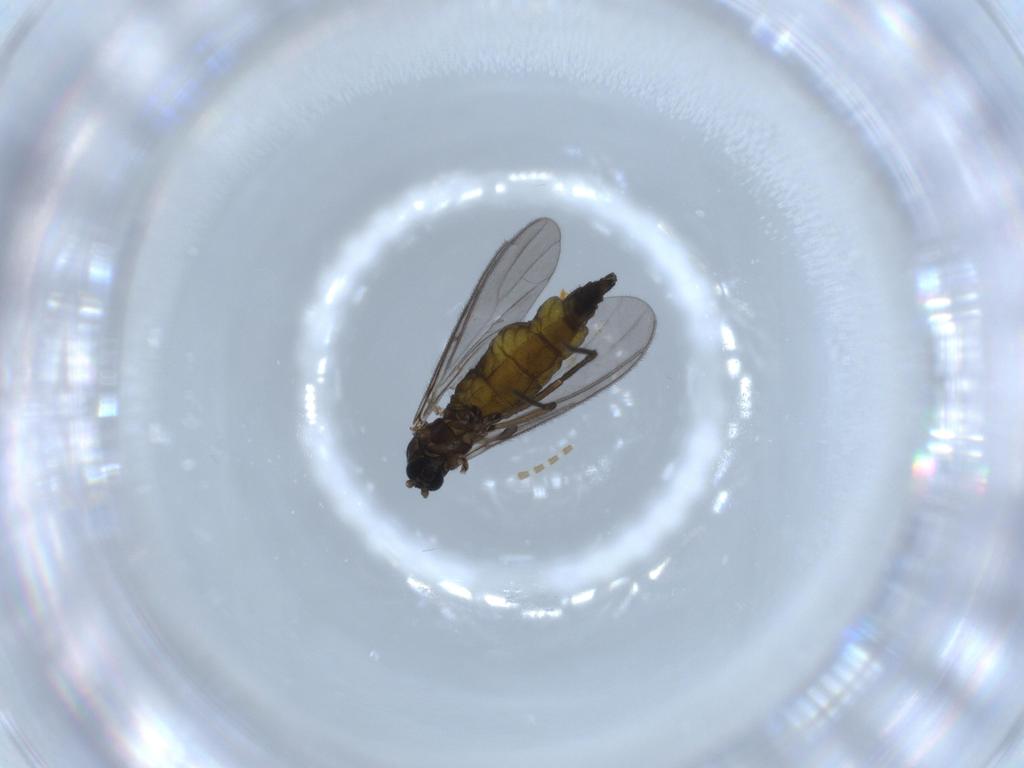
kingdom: Animalia
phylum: Arthropoda
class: Insecta
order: Diptera
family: Sciaridae
